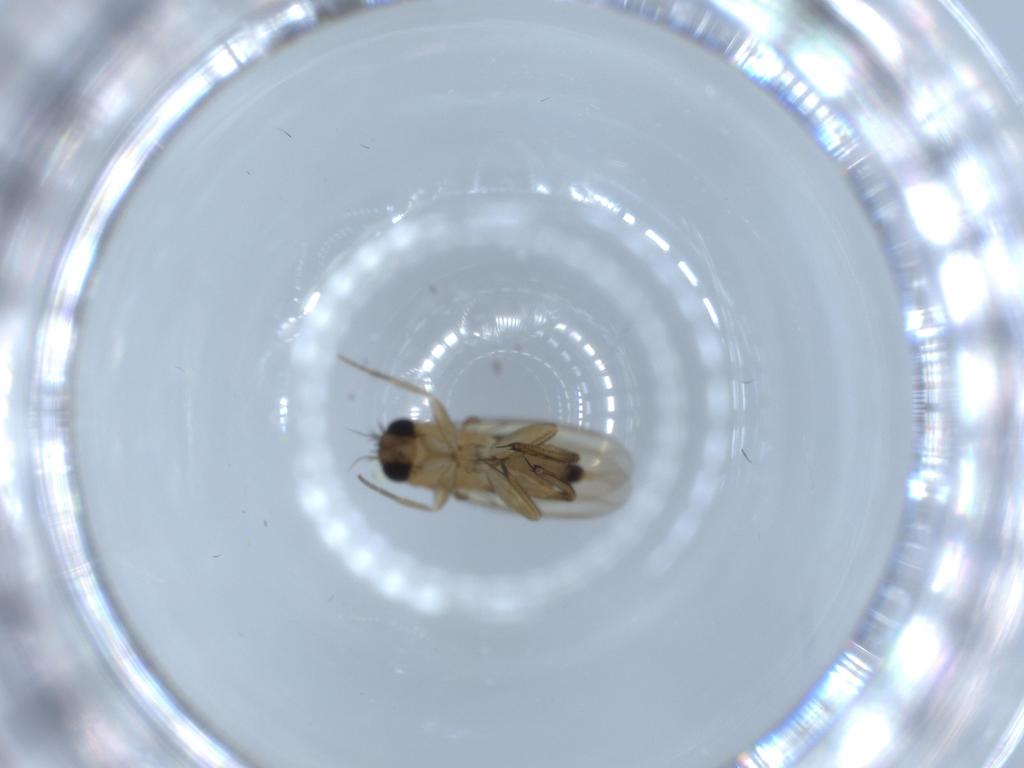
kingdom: Animalia
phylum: Arthropoda
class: Insecta
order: Diptera
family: Phoridae
